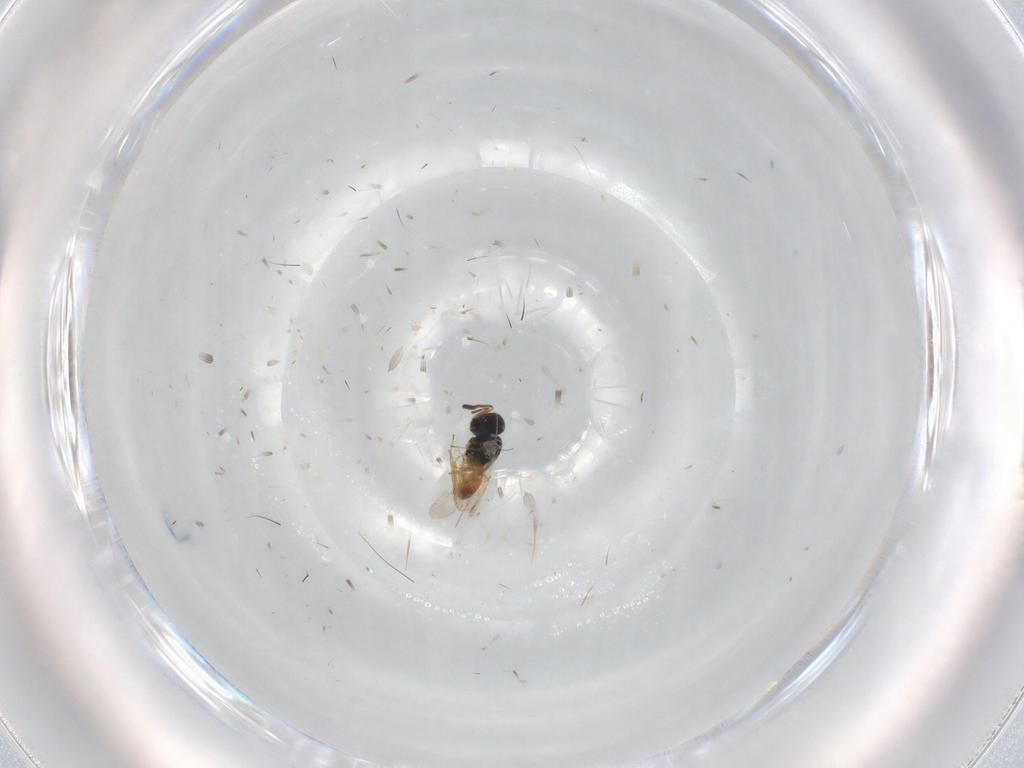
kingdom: Animalia
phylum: Arthropoda
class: Insecta
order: Hymenoptera
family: Scelionidae
